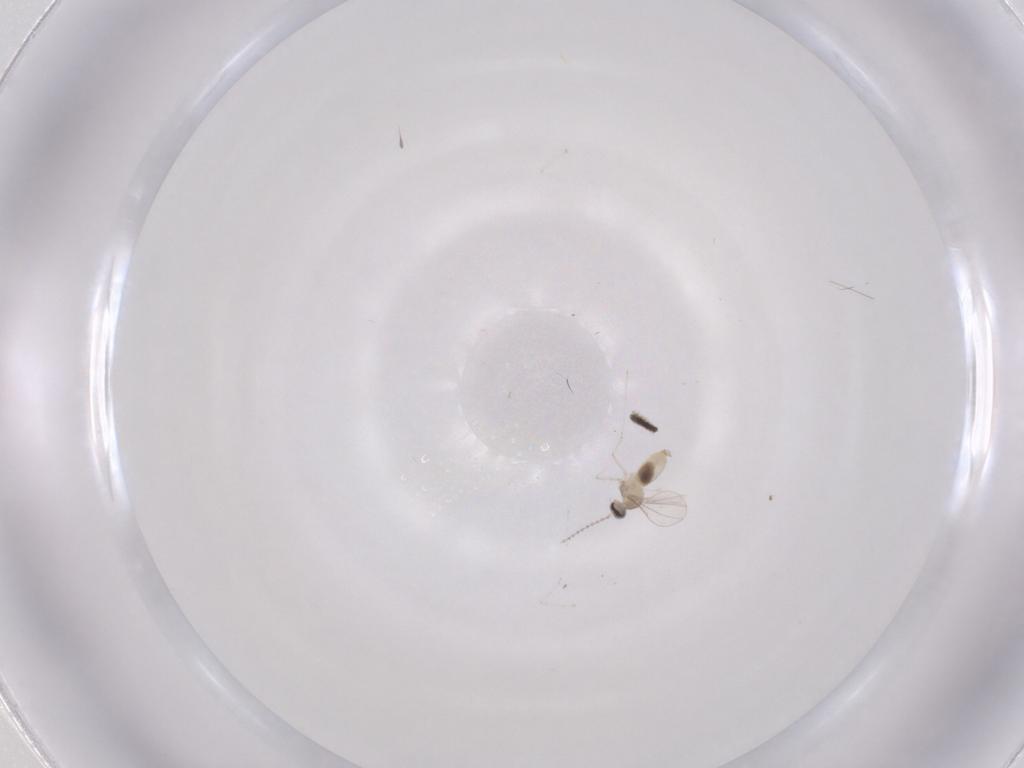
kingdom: Animalia
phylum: Arthropoda
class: Insecta
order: Diptera
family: Cecidomyiidae
